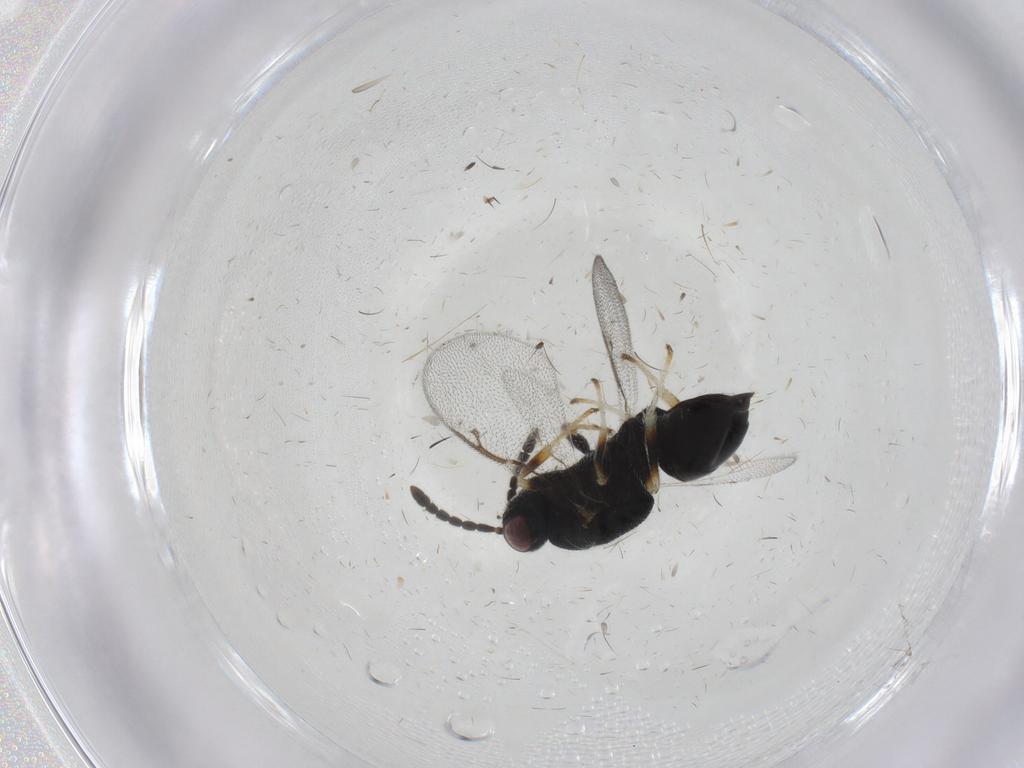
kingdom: Animalia
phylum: Arthropoda
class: Insecta
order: Hymenoptera
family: Eurytomidae
